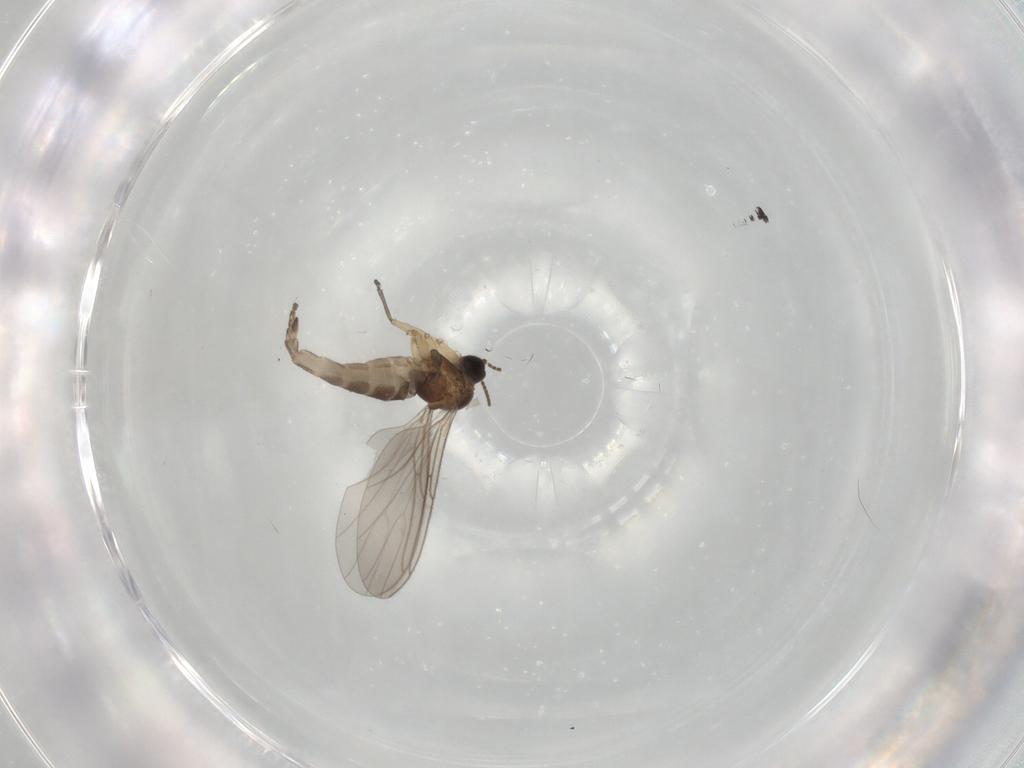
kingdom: Animalia
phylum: Arthropoda
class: Insecta
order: Diptera
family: Sciaridae
